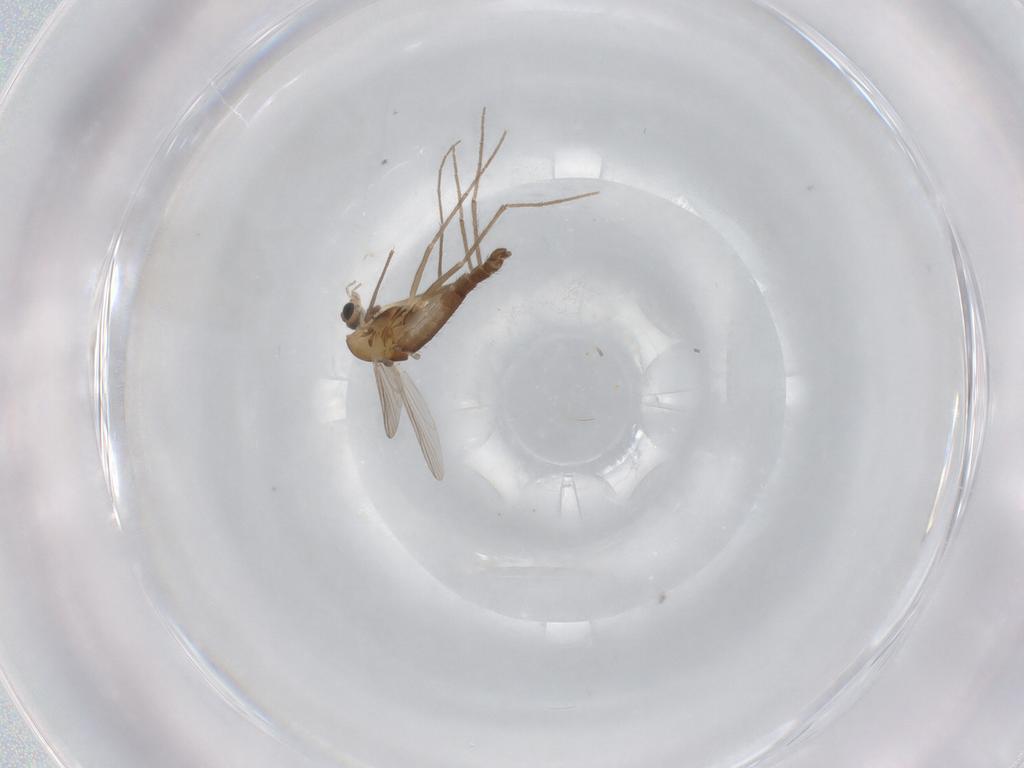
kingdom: Animalia
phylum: Arthropoda
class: Insecta
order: Diptera
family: Chironomidae
